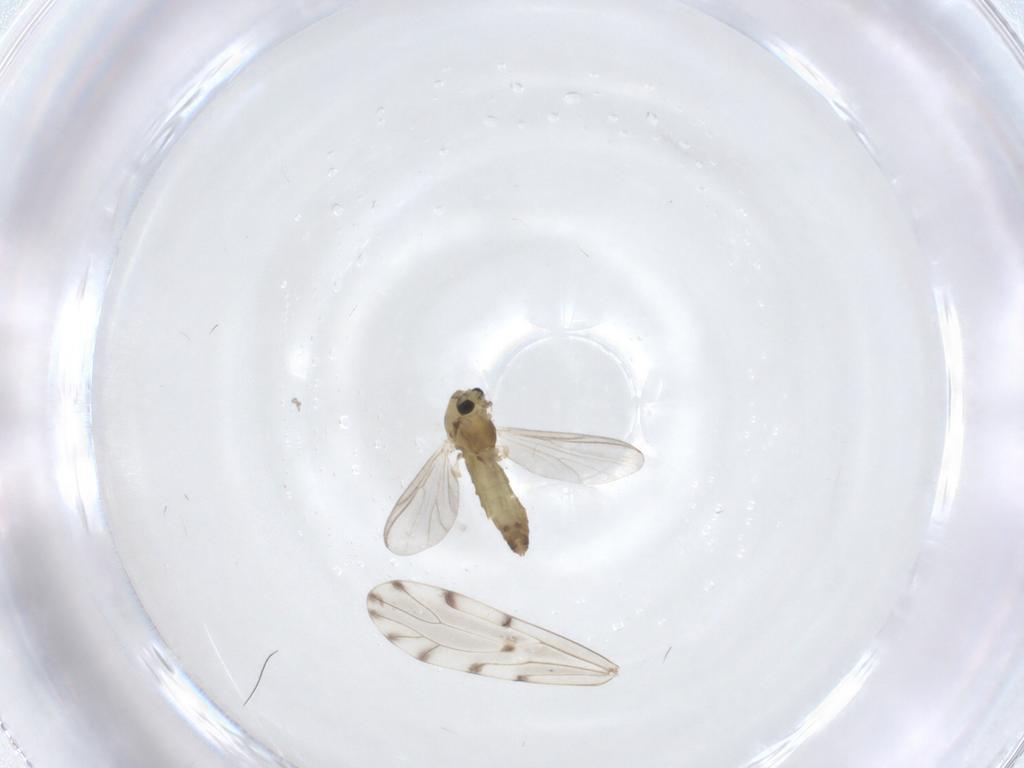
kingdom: Animalia
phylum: Arthropoda
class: Insecta
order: Diptera
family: Chironomidae
